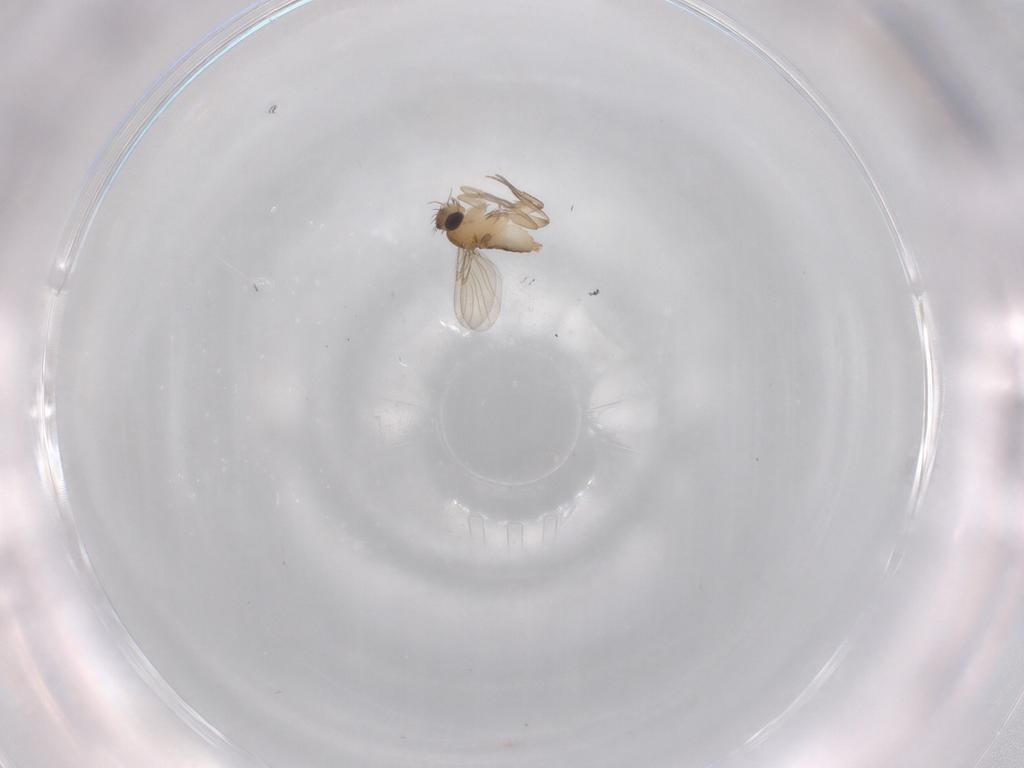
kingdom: Animalia
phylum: Arthropoda
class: Insecta
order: Diptera
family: Phoridae
